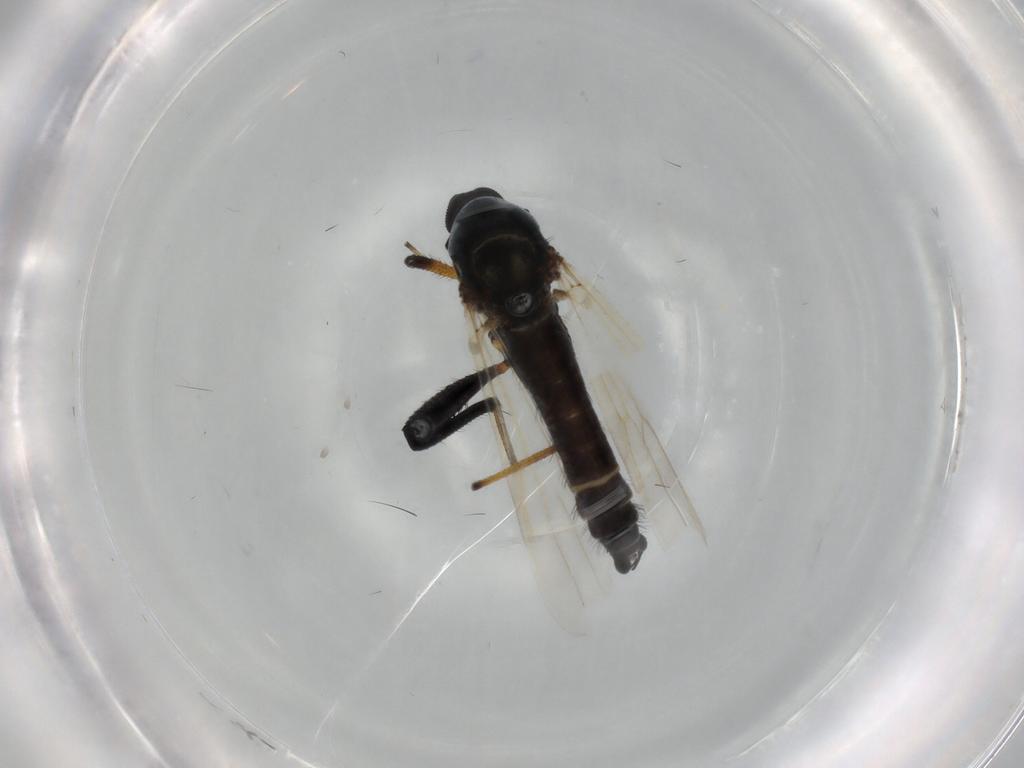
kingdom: Animalia
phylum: Arthropoda
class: Insecta
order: Diptera
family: Ceratopogonidae
